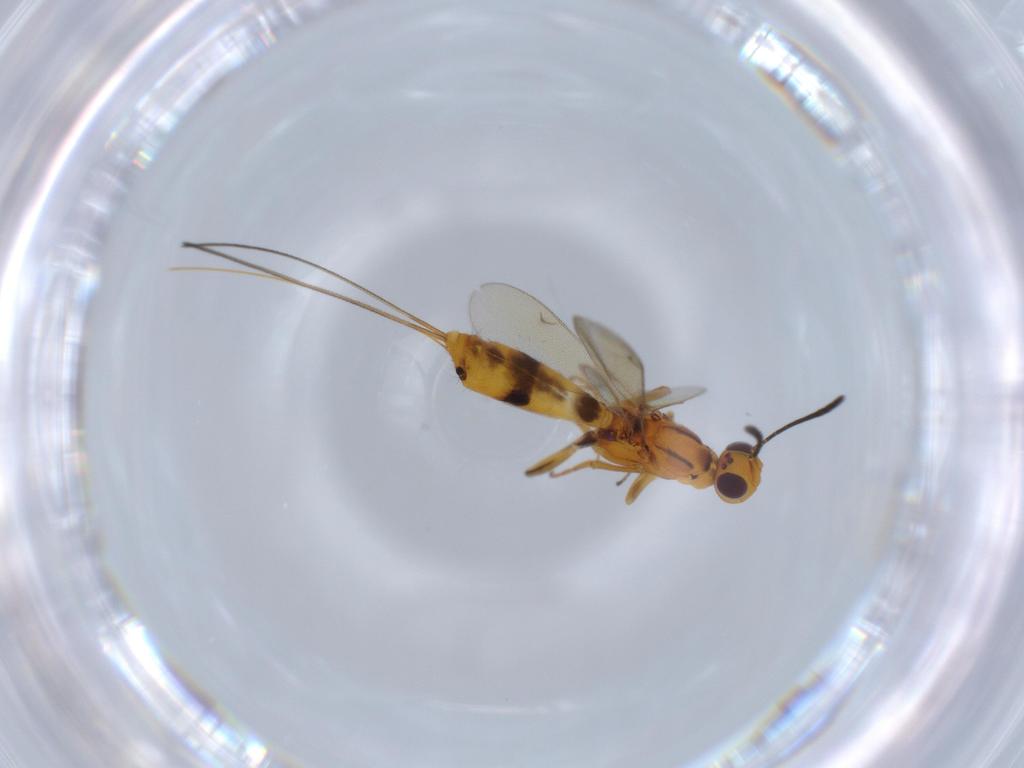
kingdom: Animalia
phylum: Arthropoda
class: Insecta
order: Hymenoptera
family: Eupelmidae
